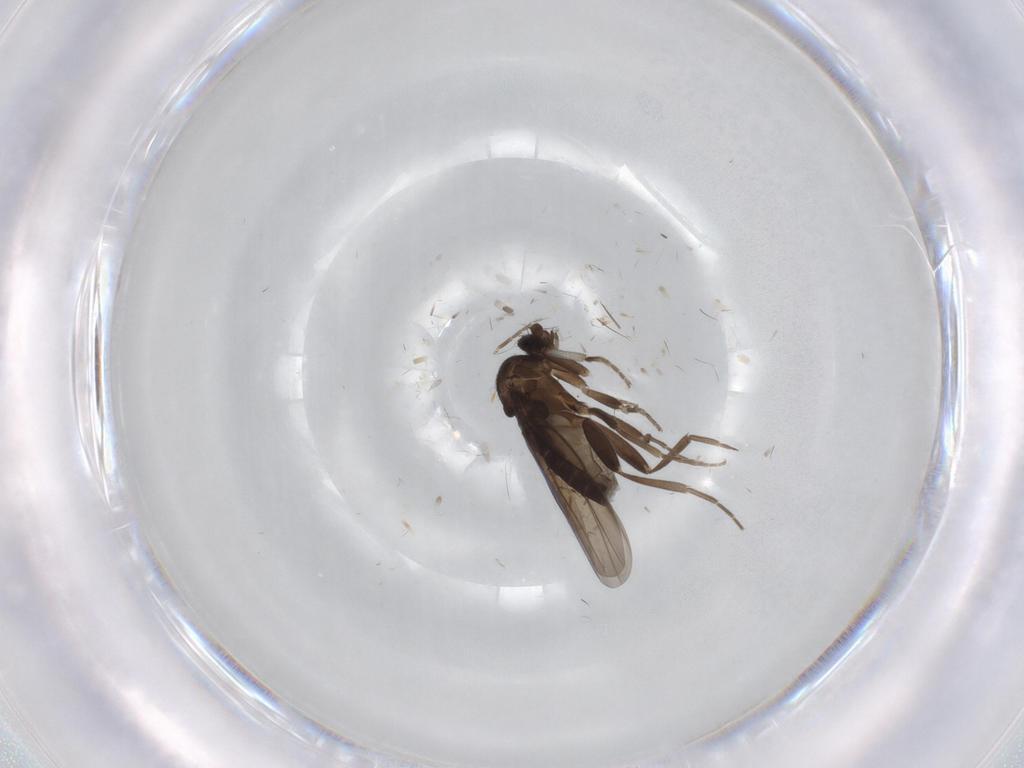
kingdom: Animalia
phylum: Arthropoda
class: Insecta
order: Diptera
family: Phoridae
